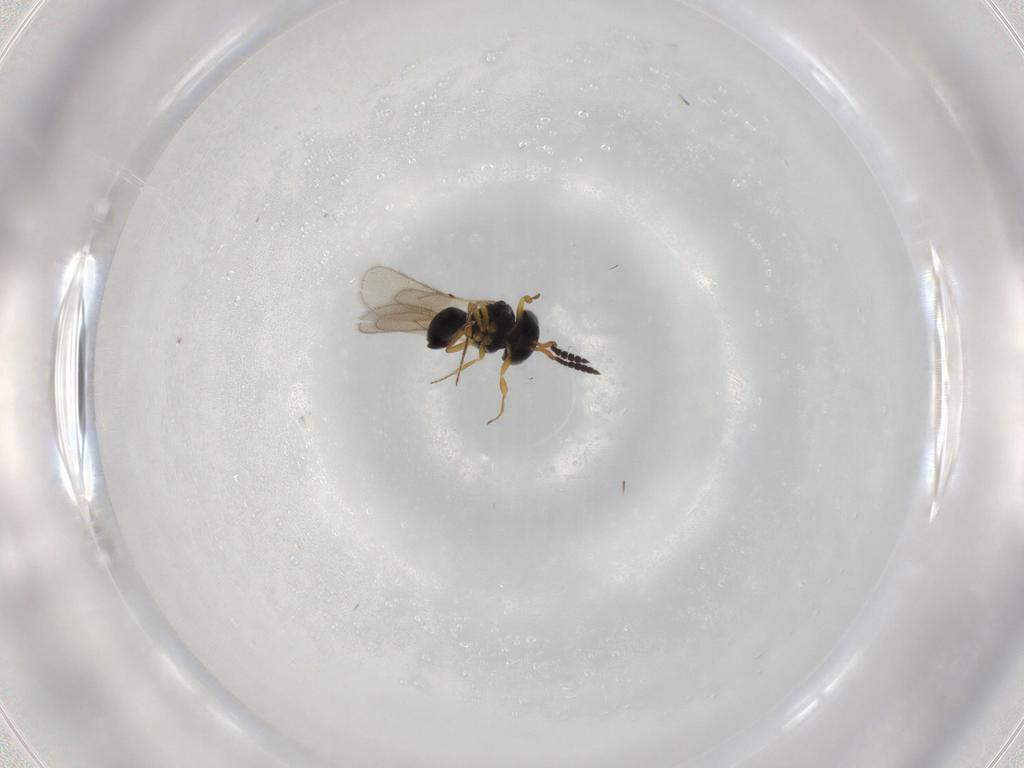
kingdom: Animalia
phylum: Arthropoda
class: Insecta
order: Hymenoptera
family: Scelionidae
